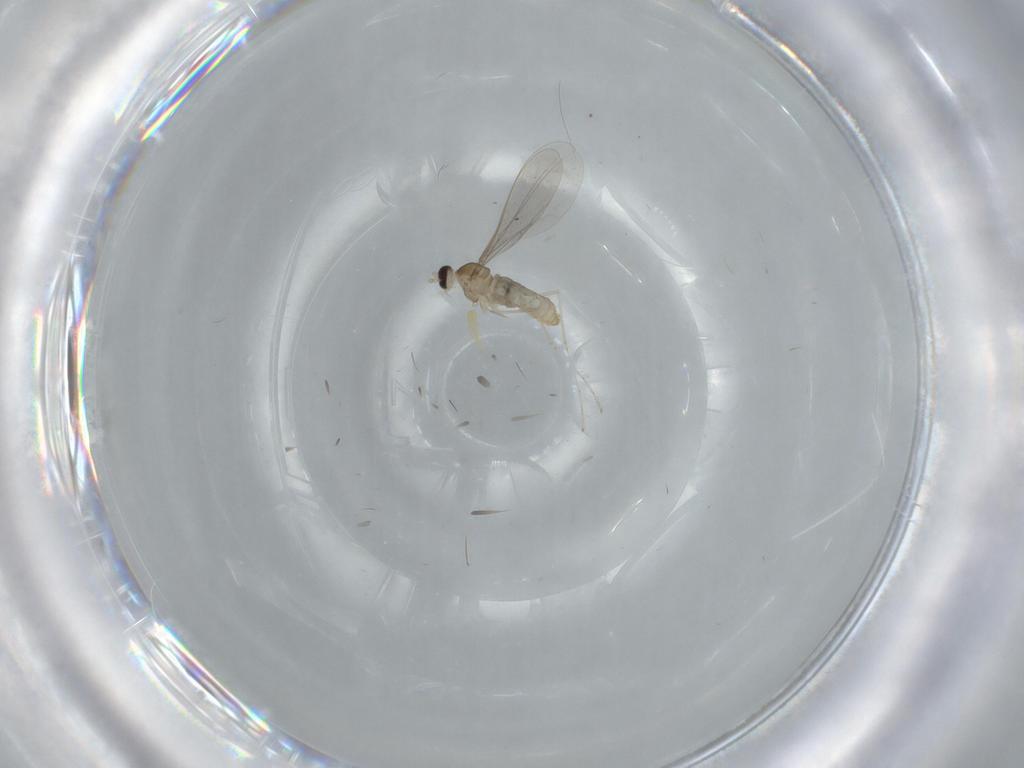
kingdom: Animalia
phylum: Arthropoda
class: Insecta
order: Diptera
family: Cecidomyiidae
